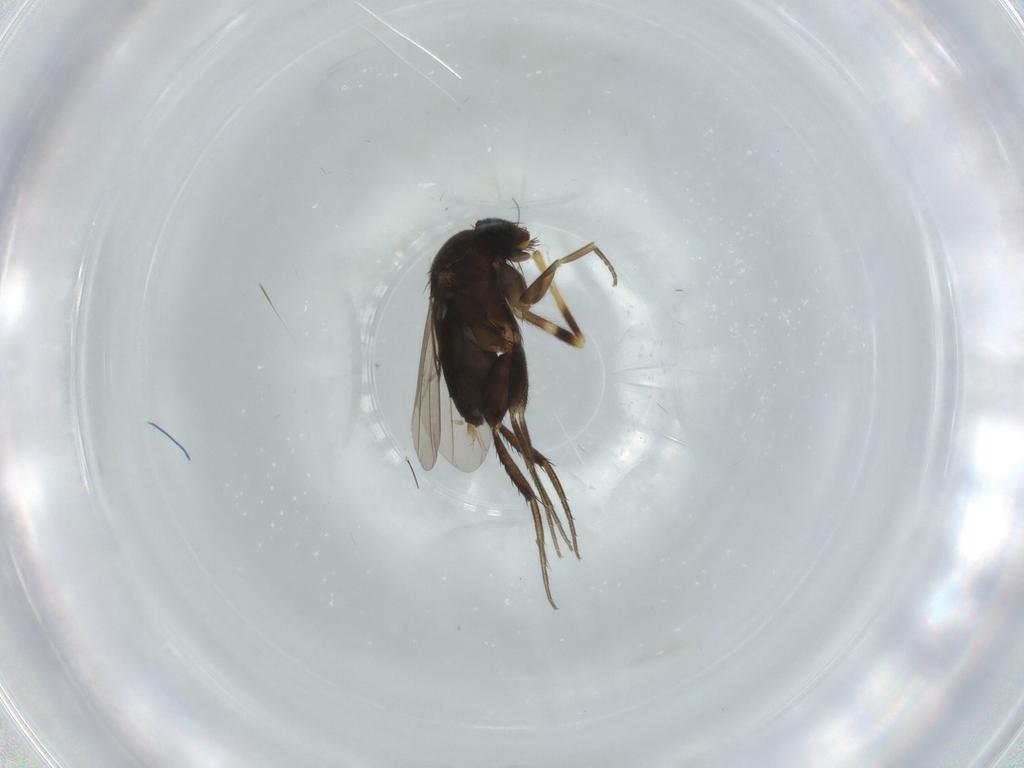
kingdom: Animalia
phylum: Arthropoda
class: Insecta
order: Diptera
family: Phoridae
